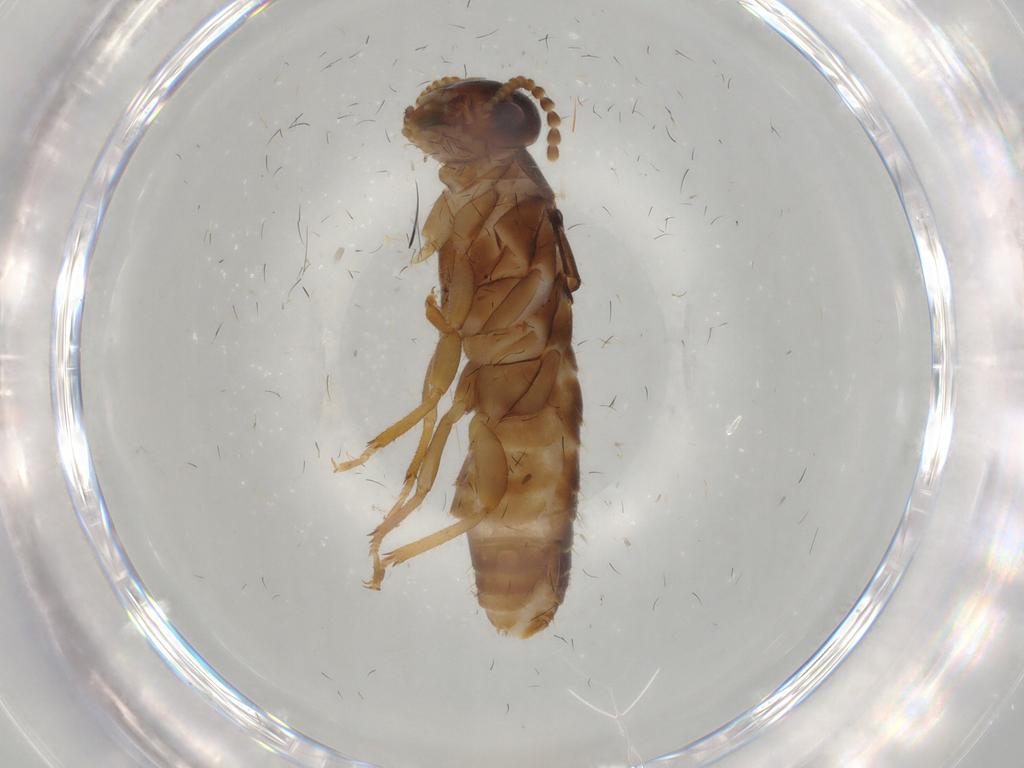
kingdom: Animalia
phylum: Arthropoda
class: Insecta
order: Blattodea
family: Kalotermitidae
